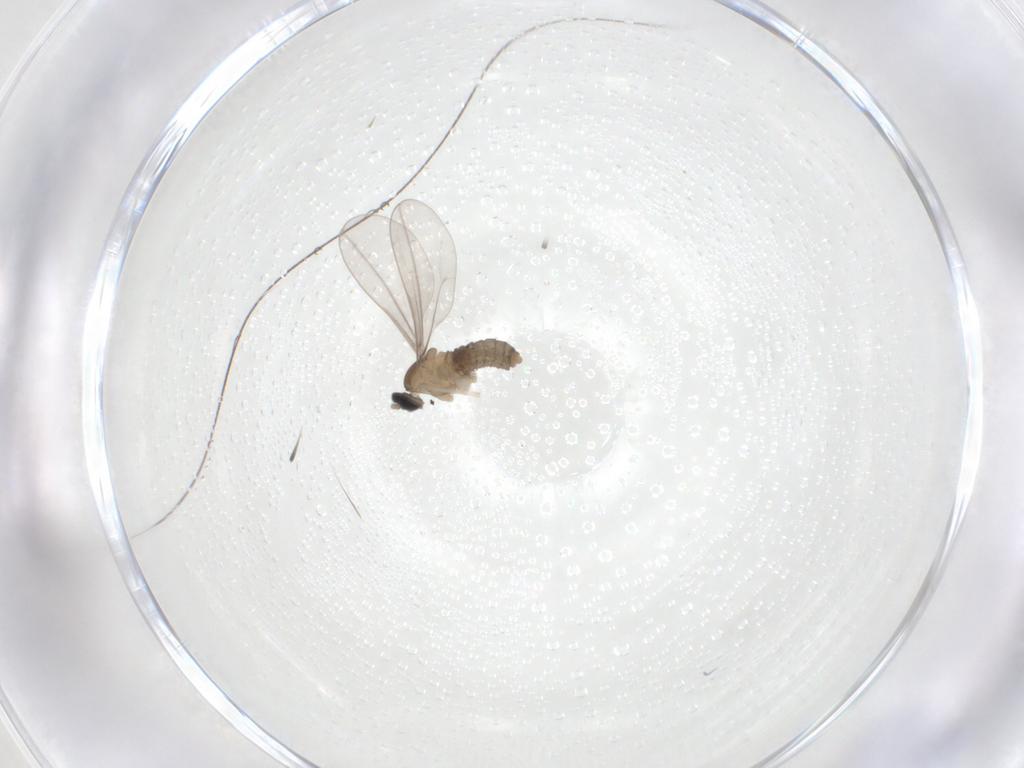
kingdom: Animalia
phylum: Arthropoda
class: Insecta
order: Diptera
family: Cecidomyiidae
